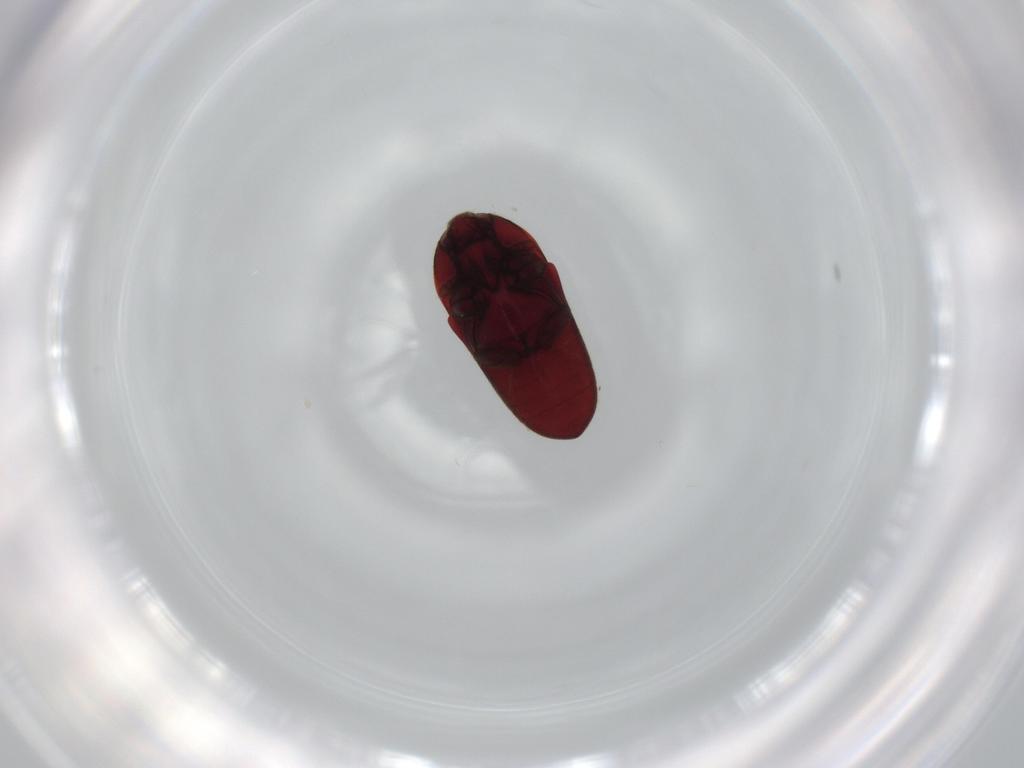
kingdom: Animalia
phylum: Arthropoda
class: Insecta
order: Coleoptera
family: Throscidae
